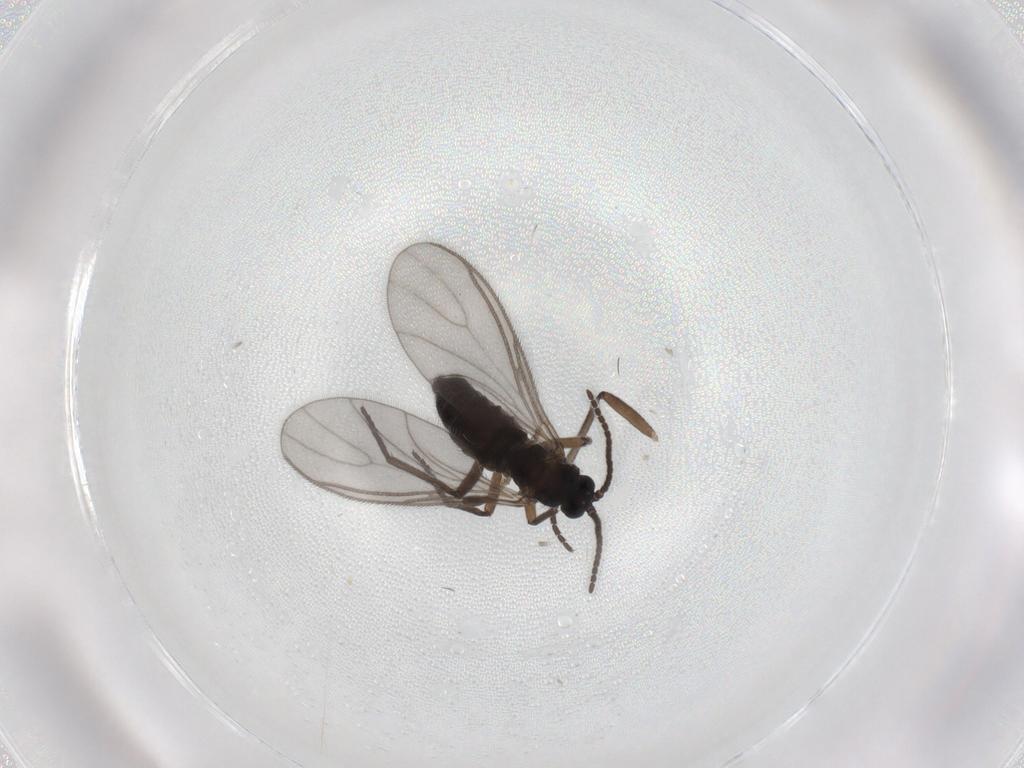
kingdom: Animalia
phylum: Arthropoda
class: Insecta
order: Diptera
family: Sciaridae
